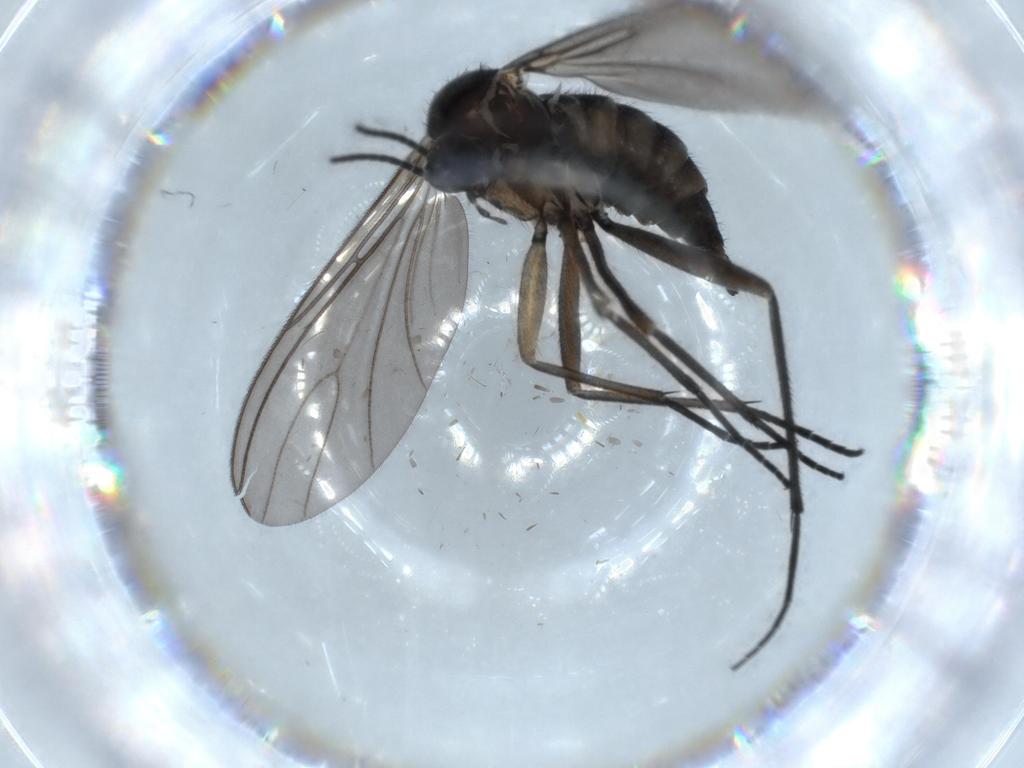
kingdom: Animalia
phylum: Arthropoda
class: Insecta
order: Diptera
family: Sciaridae
